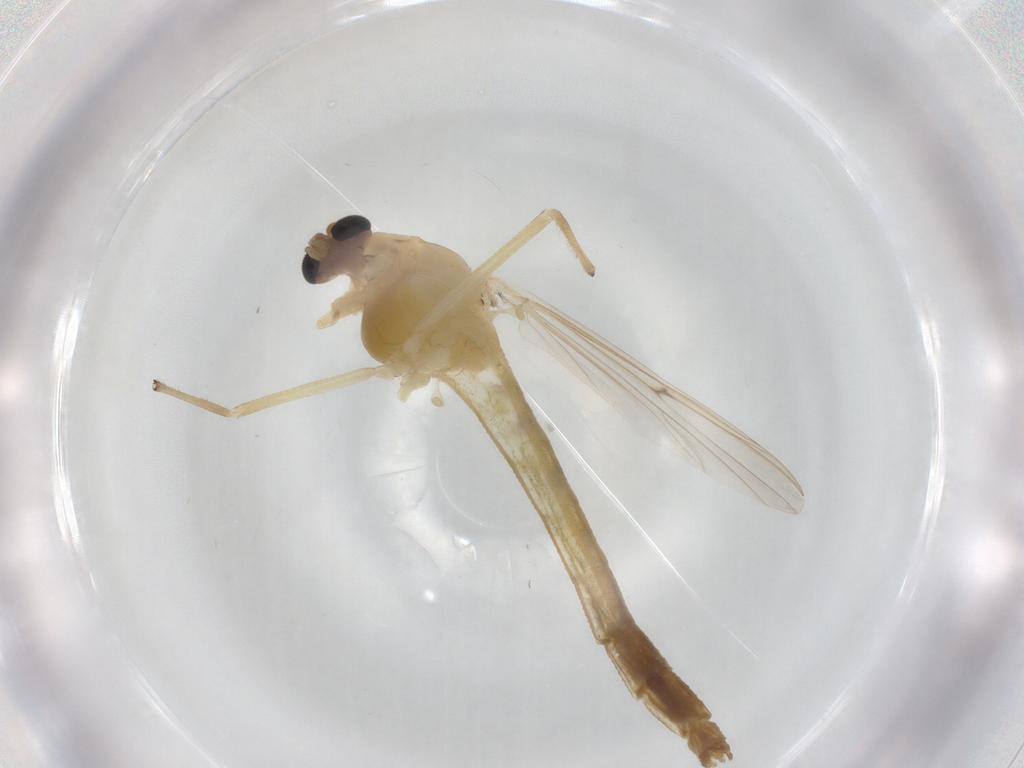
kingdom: Animalia
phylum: Arthropoda
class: Insecta
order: Diptera
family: Chironomidae
